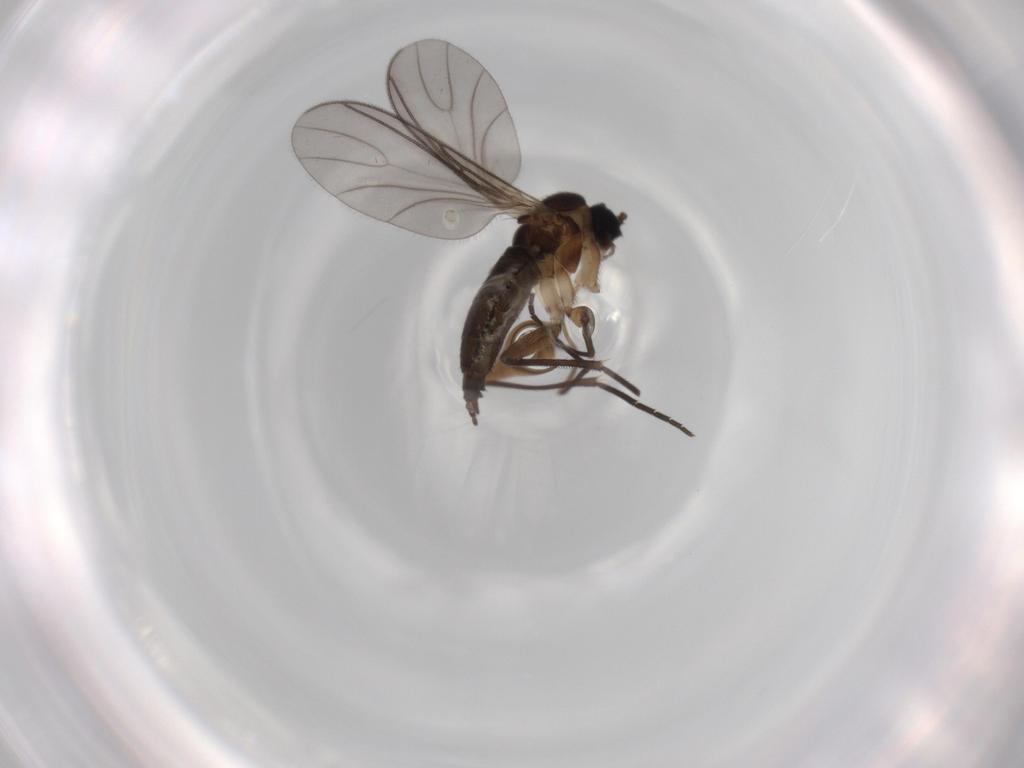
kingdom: Animalia
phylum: Arthropoda
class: Insecta
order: Diptera
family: Sciaridae
